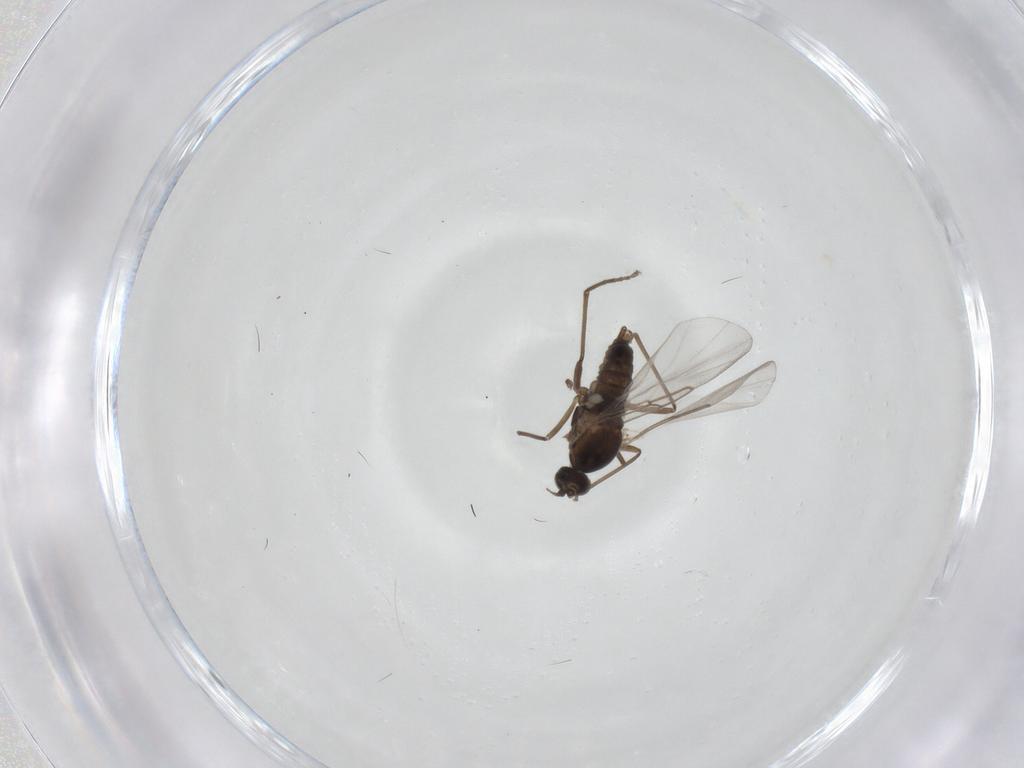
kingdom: Animalia
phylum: Arthropoda
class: Insecta
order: Diptera
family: Cecidomyiidae
